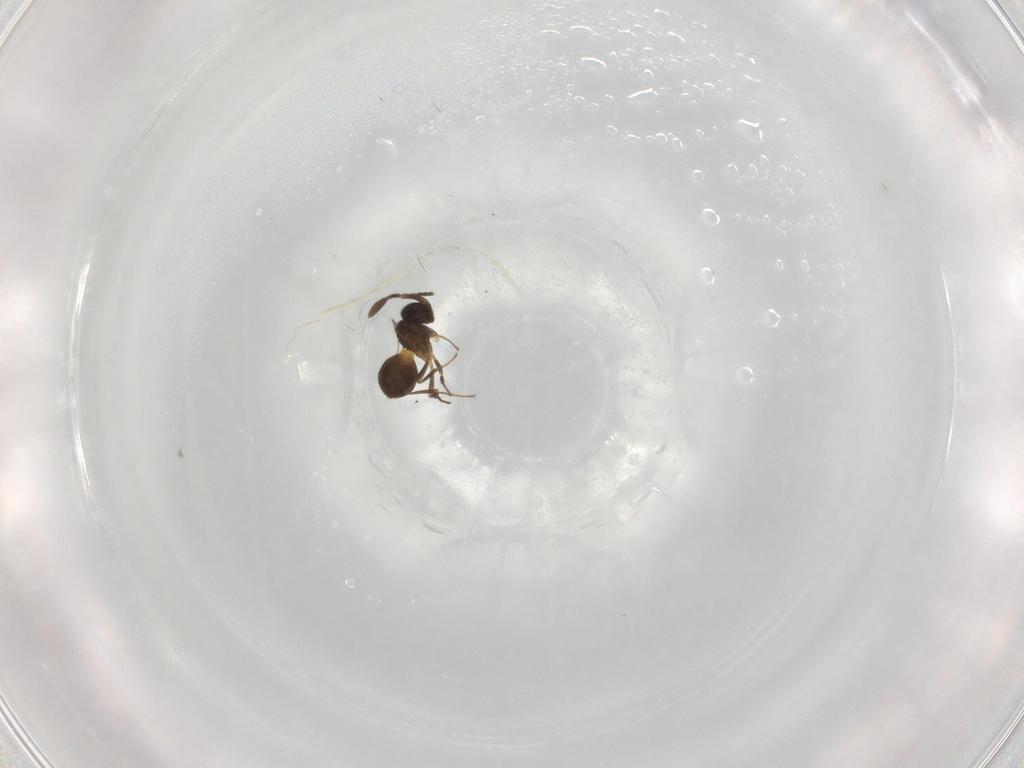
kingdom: Animalia
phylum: Arthropoda
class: Insecta
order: Hymenoptera
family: Scelionidae
